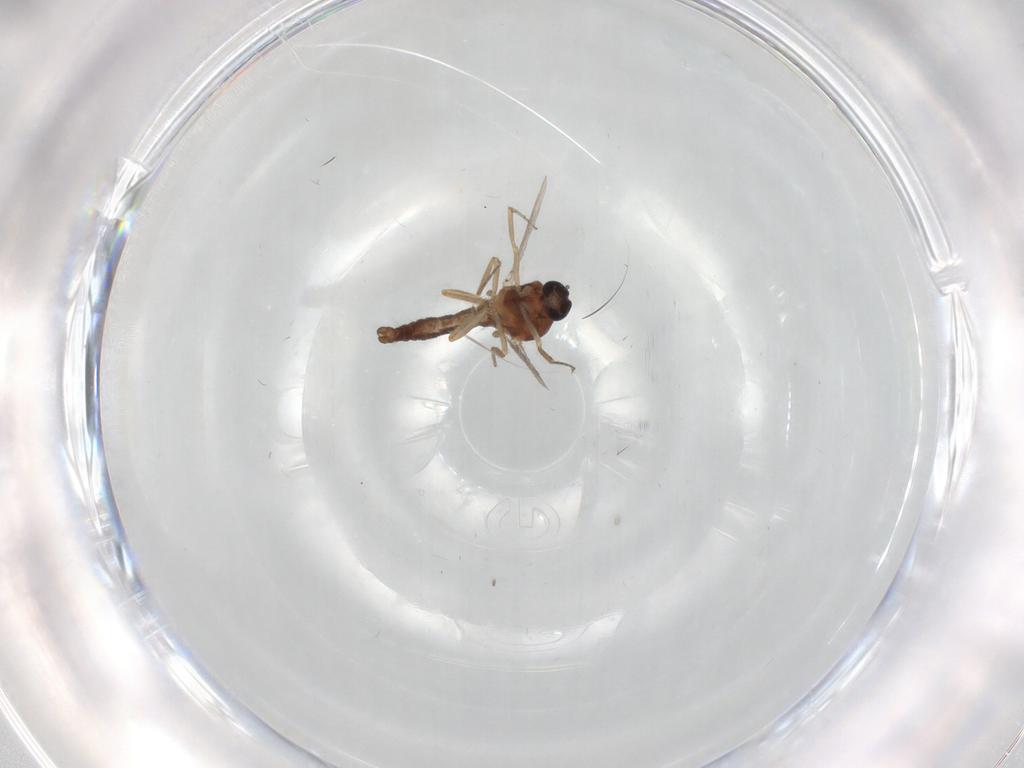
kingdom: Animalia
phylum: Arthropoda
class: Insecta
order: Diptera
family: Ceratopogonidae
